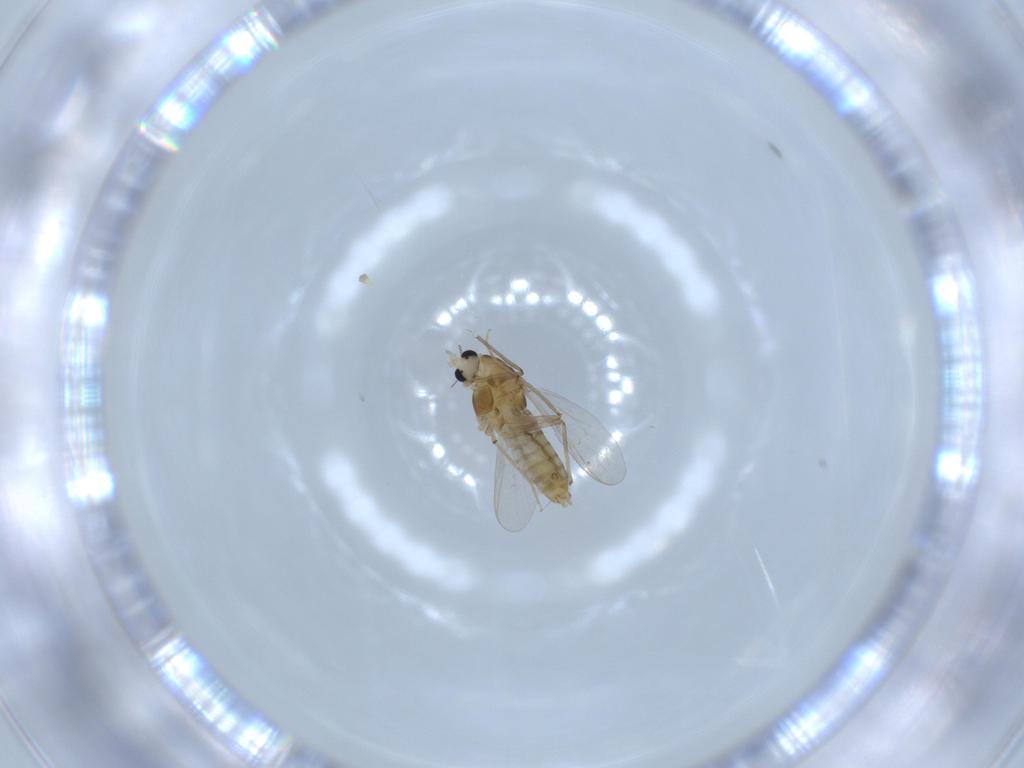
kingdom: Animalia
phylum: Arthropoda
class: Insecta
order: Diptera
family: Chironomidae
